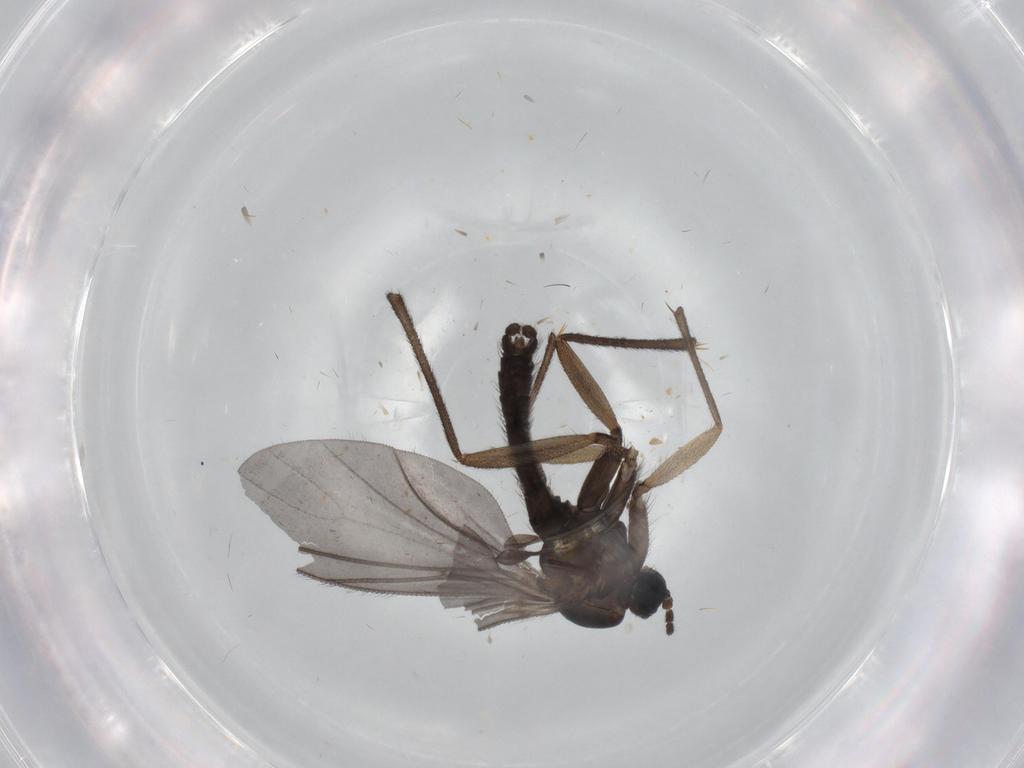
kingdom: Animalia
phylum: Arthropoda
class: Insecta
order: Diptera
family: Sciaridae
